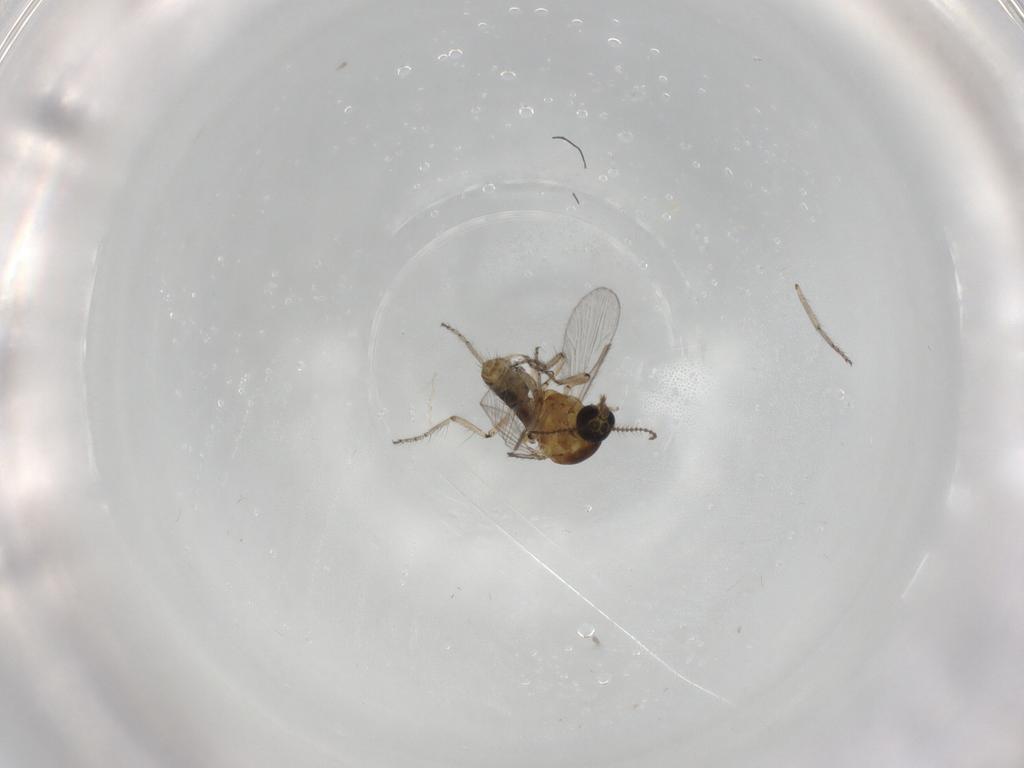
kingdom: Animalia
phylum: Arthropoda
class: Insecta
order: Diptera
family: Ceratopogonidae
